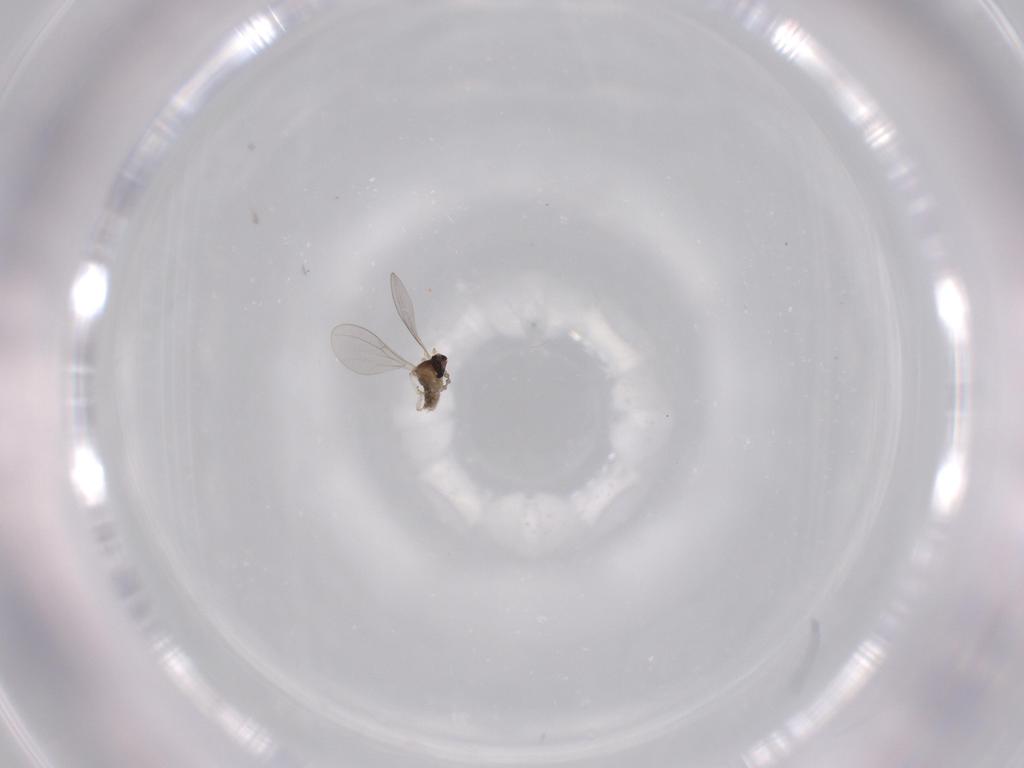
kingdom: Animalia
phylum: Arthropoda
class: Insecta
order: Diptera
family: Cecidomyiidae
